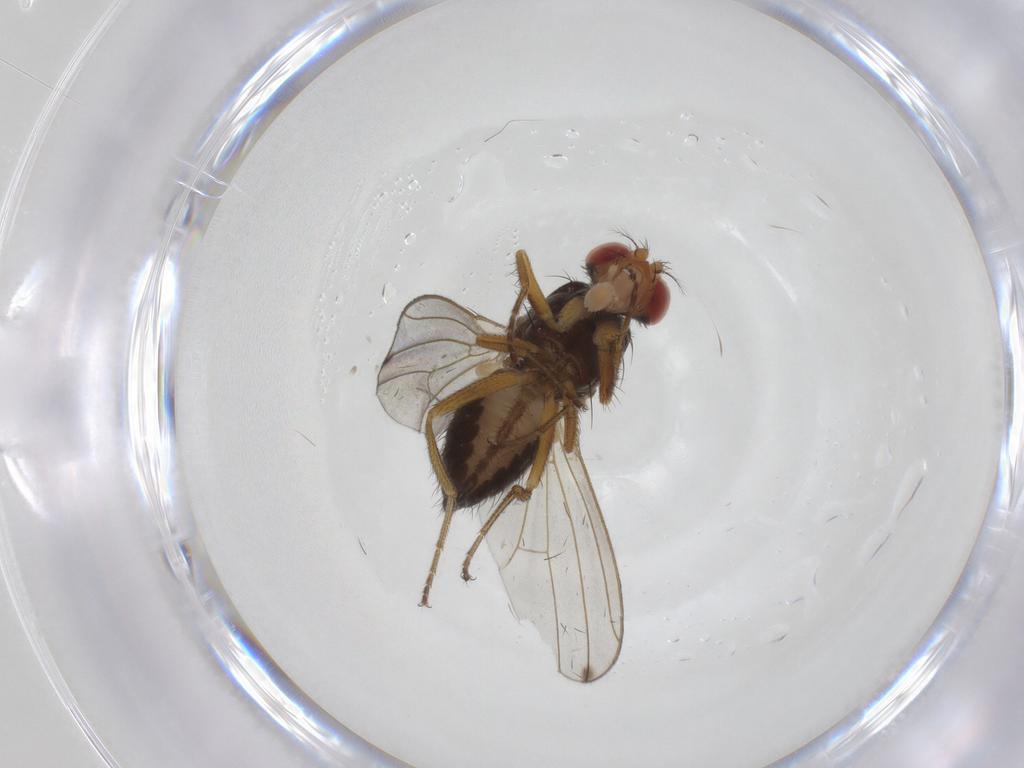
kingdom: Animalia
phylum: Arthropoda
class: Insecta
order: Diptera
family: Drosophilidae
